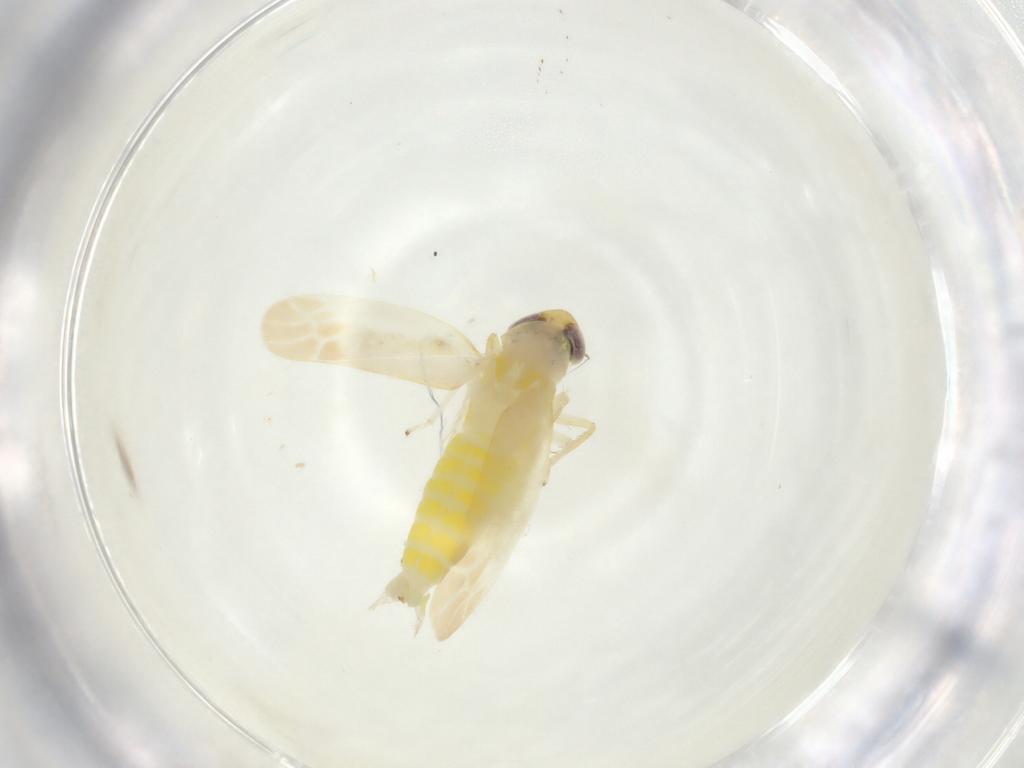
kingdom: Animalia
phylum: Arthropoda
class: Insecta
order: Hemiptera
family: Cicadellidae
